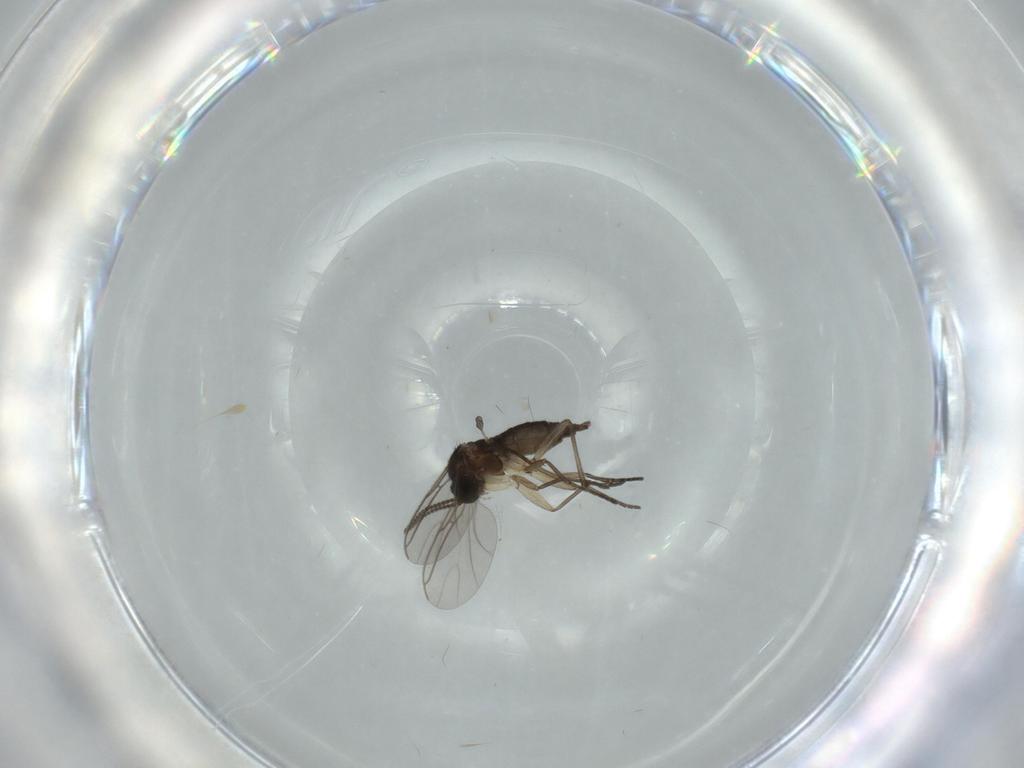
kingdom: Animalia
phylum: Arthropoda
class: Insecta
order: Diptera
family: Sciaridae
